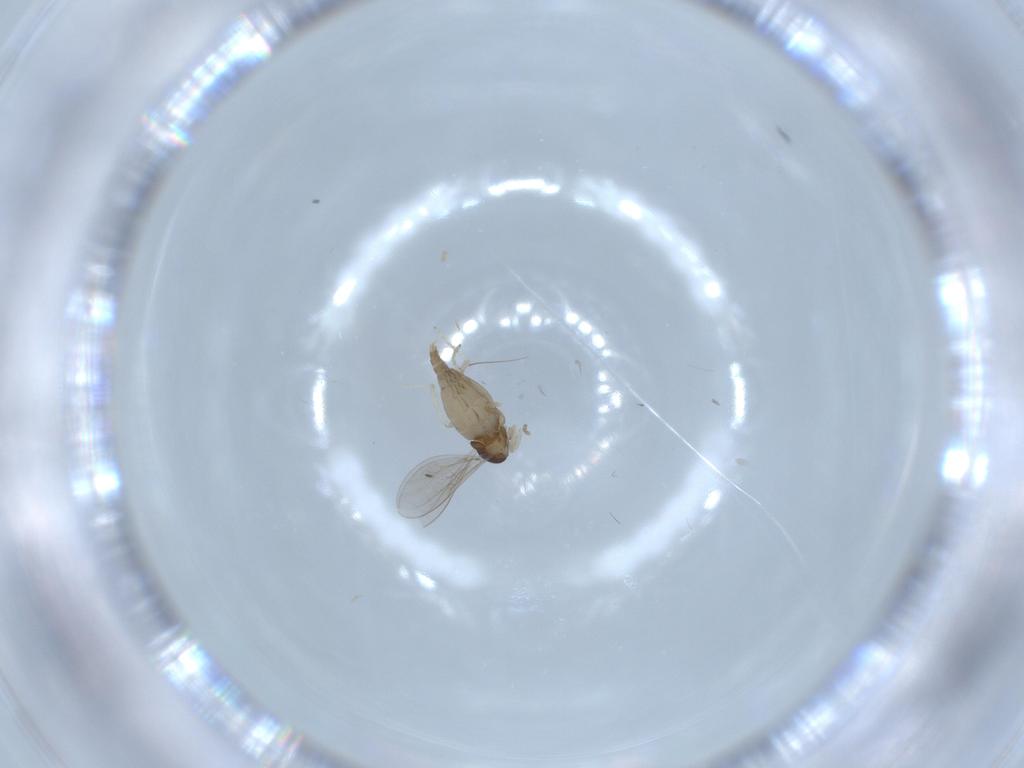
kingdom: Animalia
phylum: Arthropoda
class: Insecta
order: Diptera
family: Cecidomyiidae
